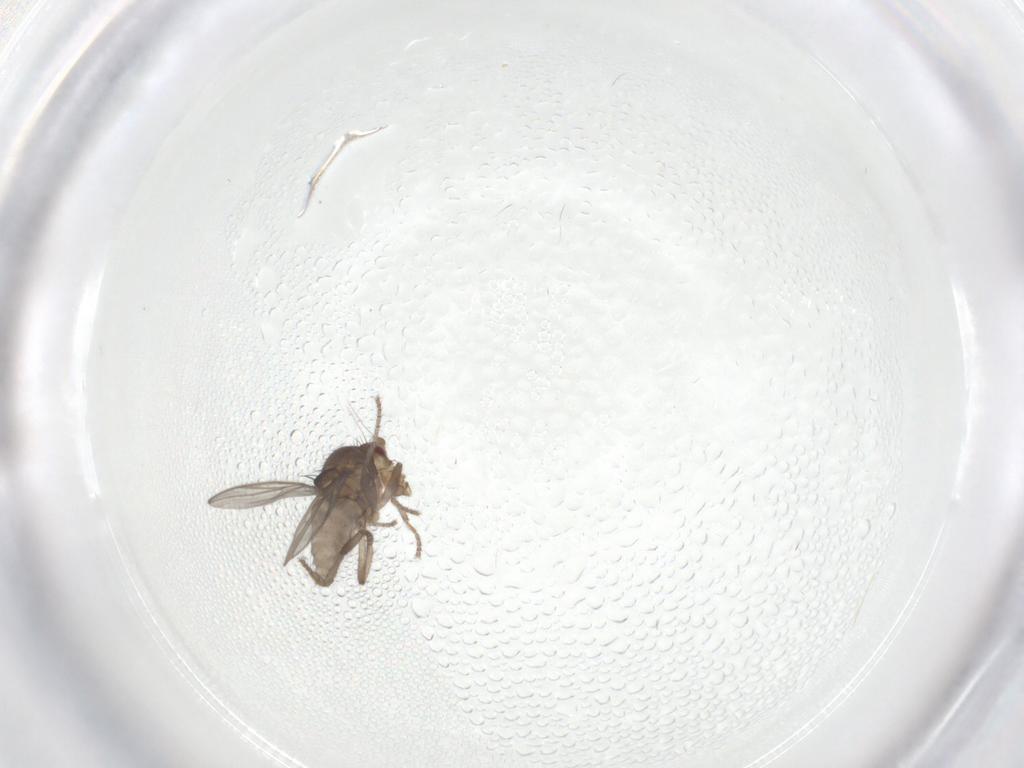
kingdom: Animalia
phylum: Arthropoda
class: Insecta
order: Diptera
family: Sphaeroceridae
